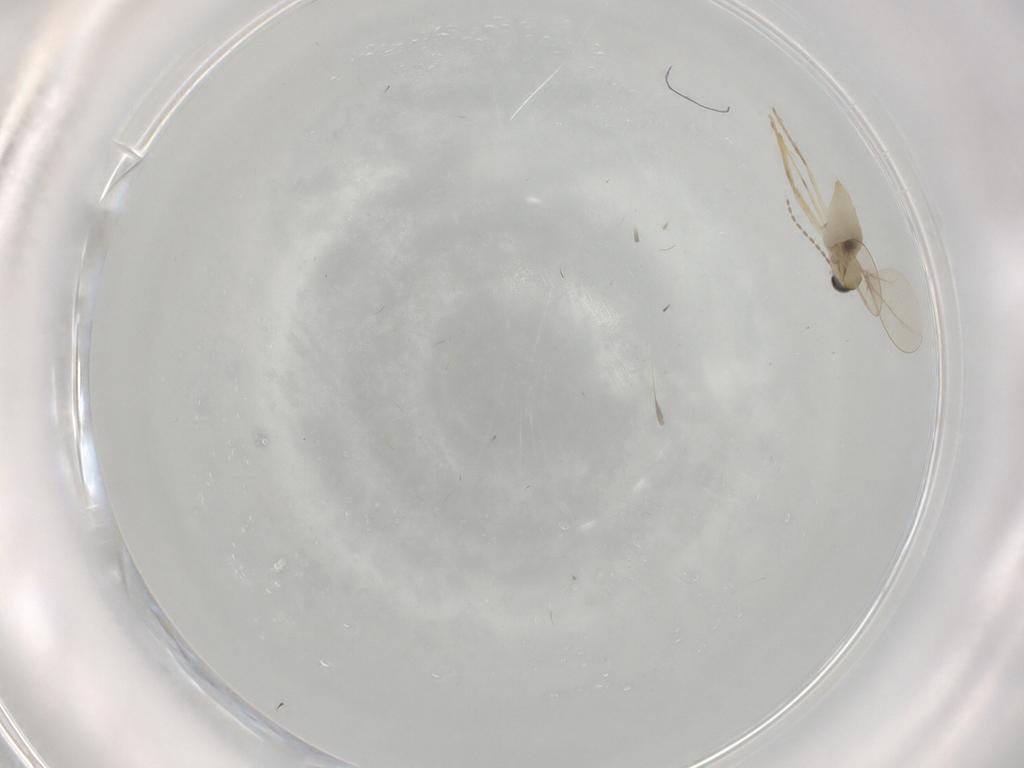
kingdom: Animalia
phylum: Arthropoda
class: Insecta
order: Diptera
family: Cecidomyiidae
